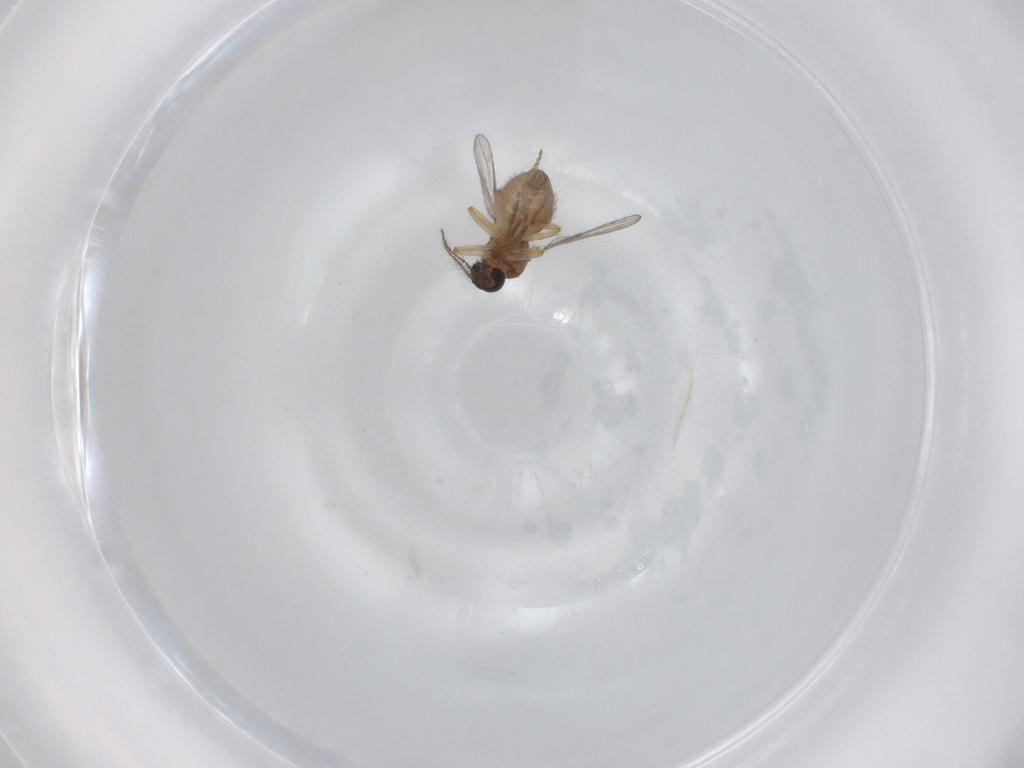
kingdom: Animalia
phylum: Arthropoda
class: Insecta
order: Diptera
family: Ceratopogonidae
